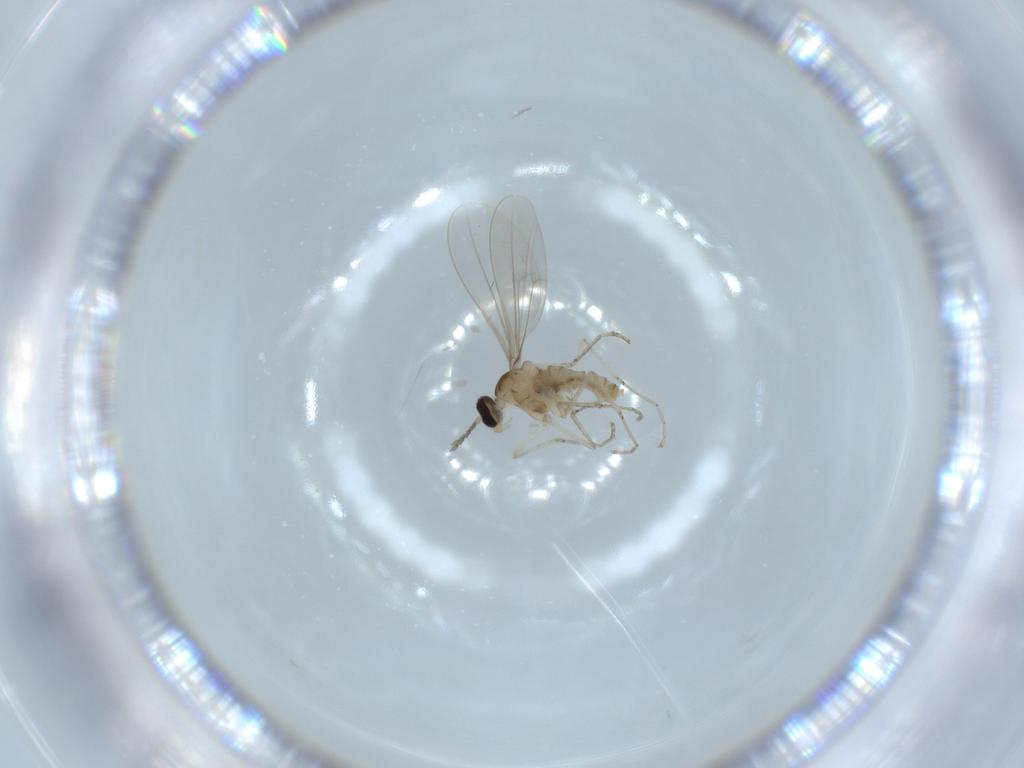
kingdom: Animalia
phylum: Arthropoda
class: Insecta
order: Diptera
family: Cecidomyiidae
